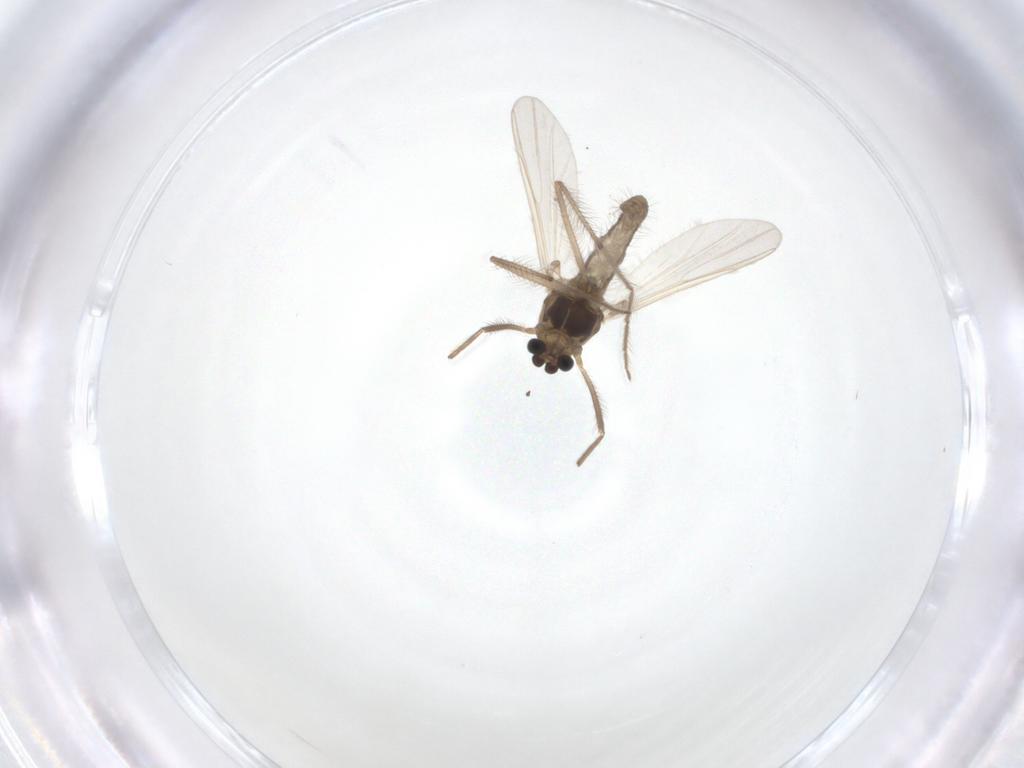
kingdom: Animalia
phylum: Arthropoda
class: Insecta
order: Diptera
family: Chironomidae
